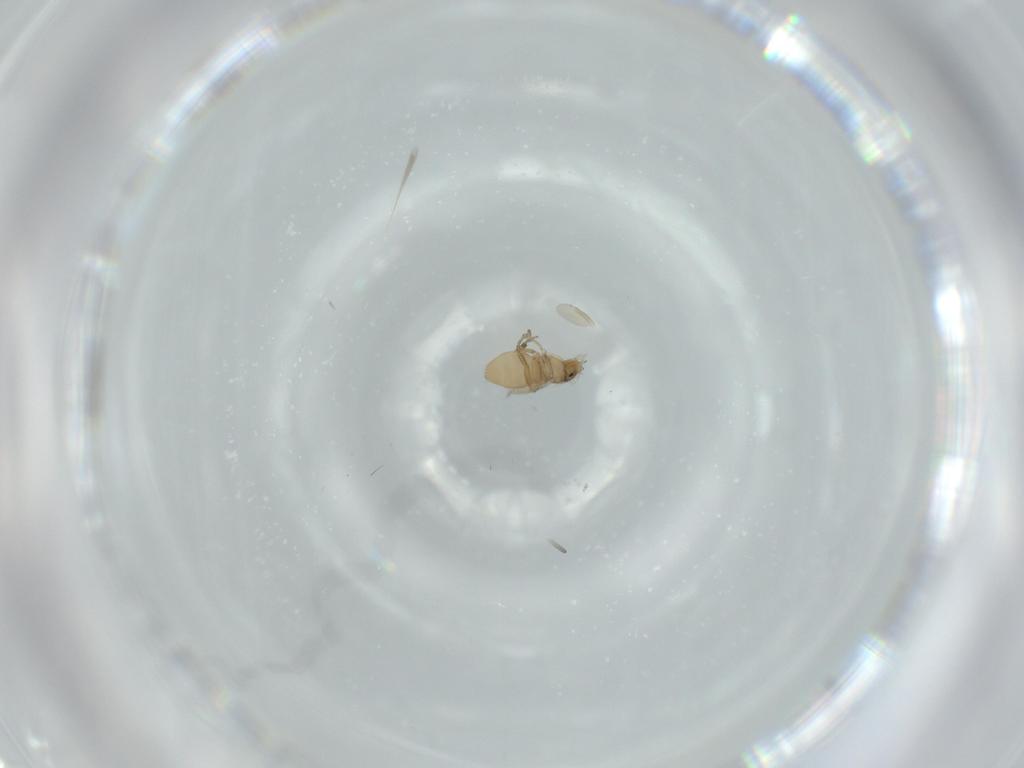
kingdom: Animalia
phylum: Arthropoda
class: Insecta
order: Diptera
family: Phoridae
